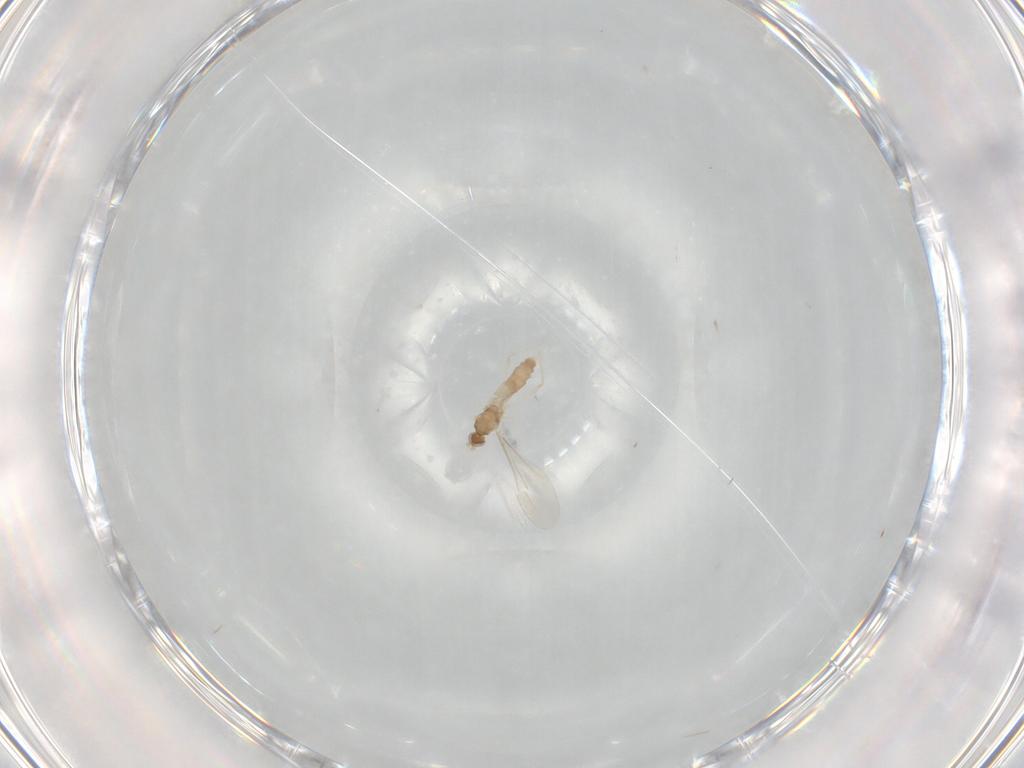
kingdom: Animalia
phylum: Arthropoda
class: Insecta
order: Diptera
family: Cecidomyiidae
